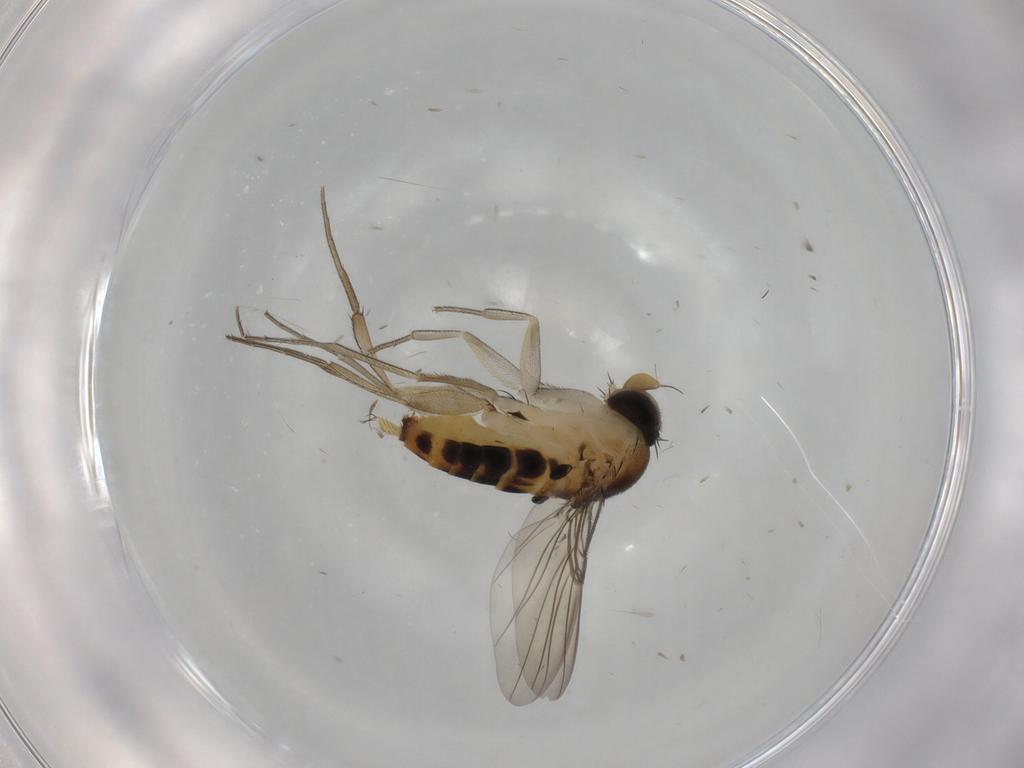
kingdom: Animalia
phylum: Arthropoda
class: Insecta
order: Diptera
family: Phoridae
